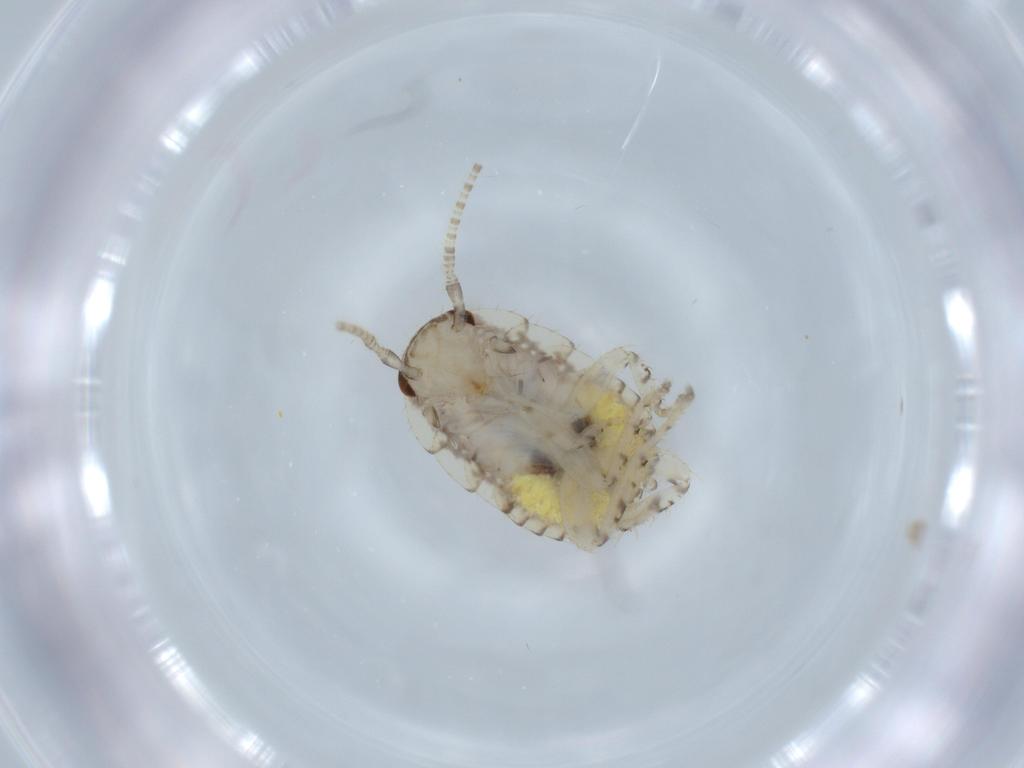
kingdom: Animalia
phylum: Arthropoda
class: Insecta
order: Blattodea
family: Ectobiidae
